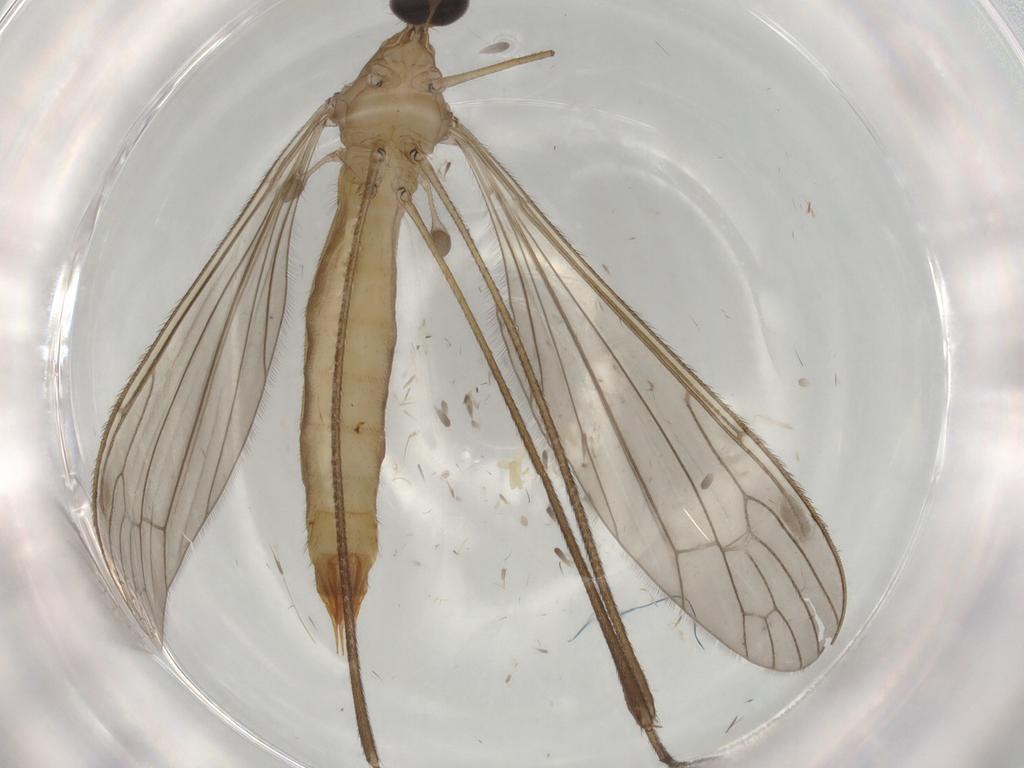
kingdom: Animalia
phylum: Arthropoda
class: Insecta
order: Diptera
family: Limoniidae
